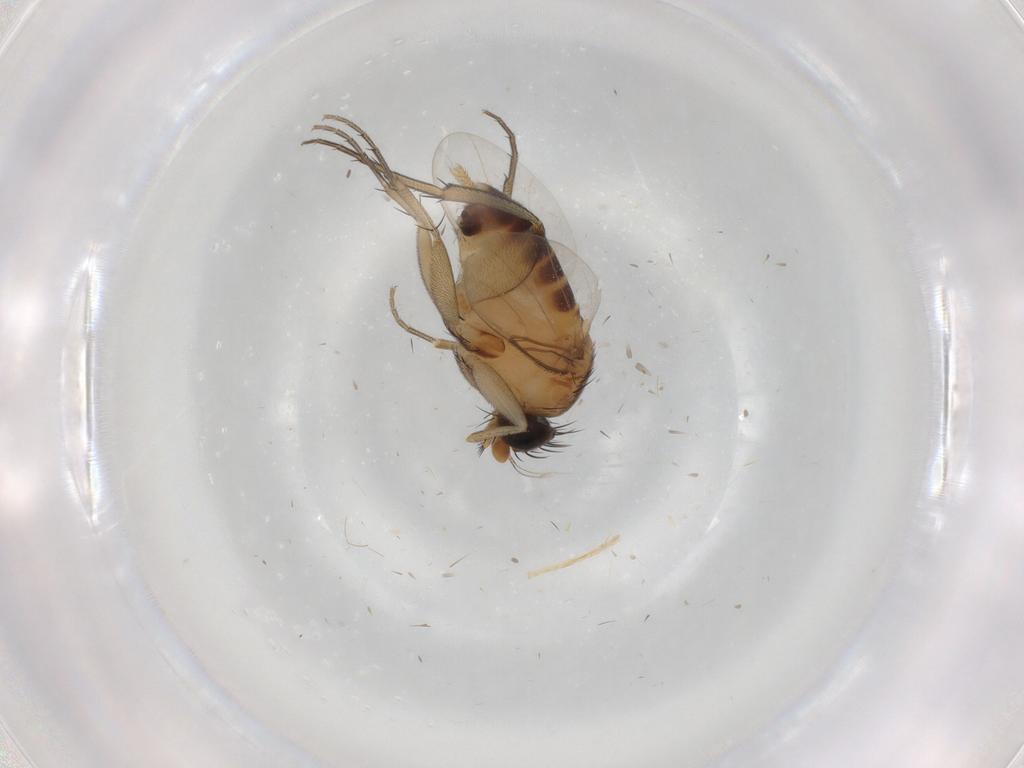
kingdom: Animalia
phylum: Arthropoda
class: Insecta
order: Diptera
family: Phoridae
